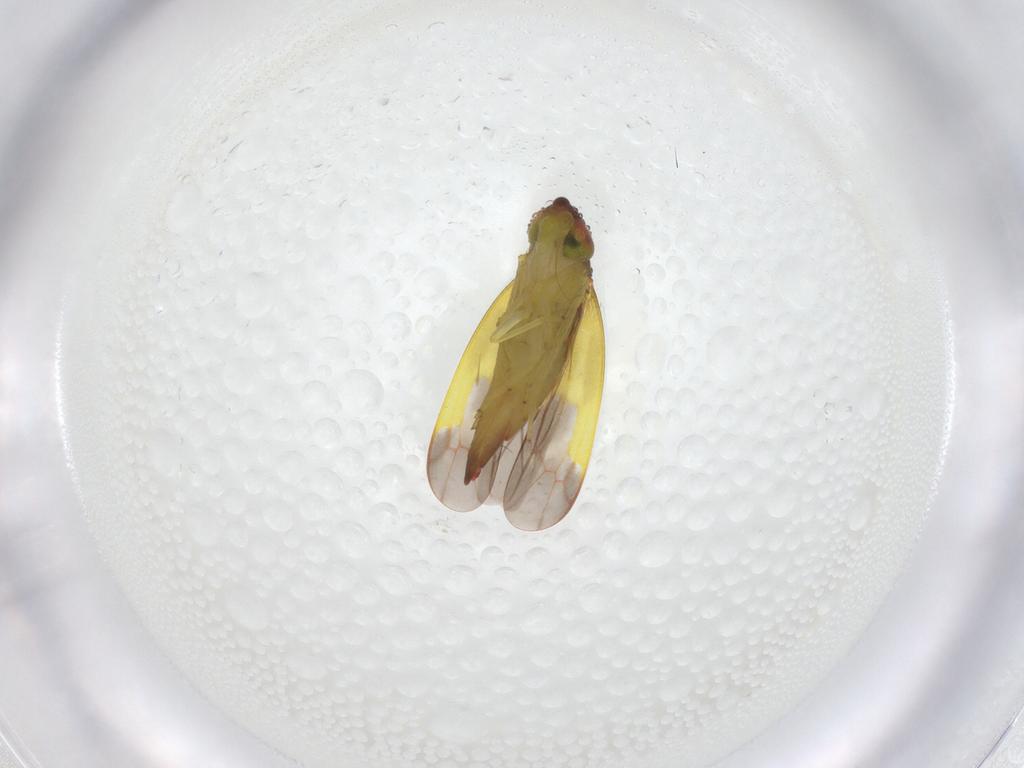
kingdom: Animalia
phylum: Arthropoda
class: Insecta
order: Hemiptera
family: Cicadellidae
